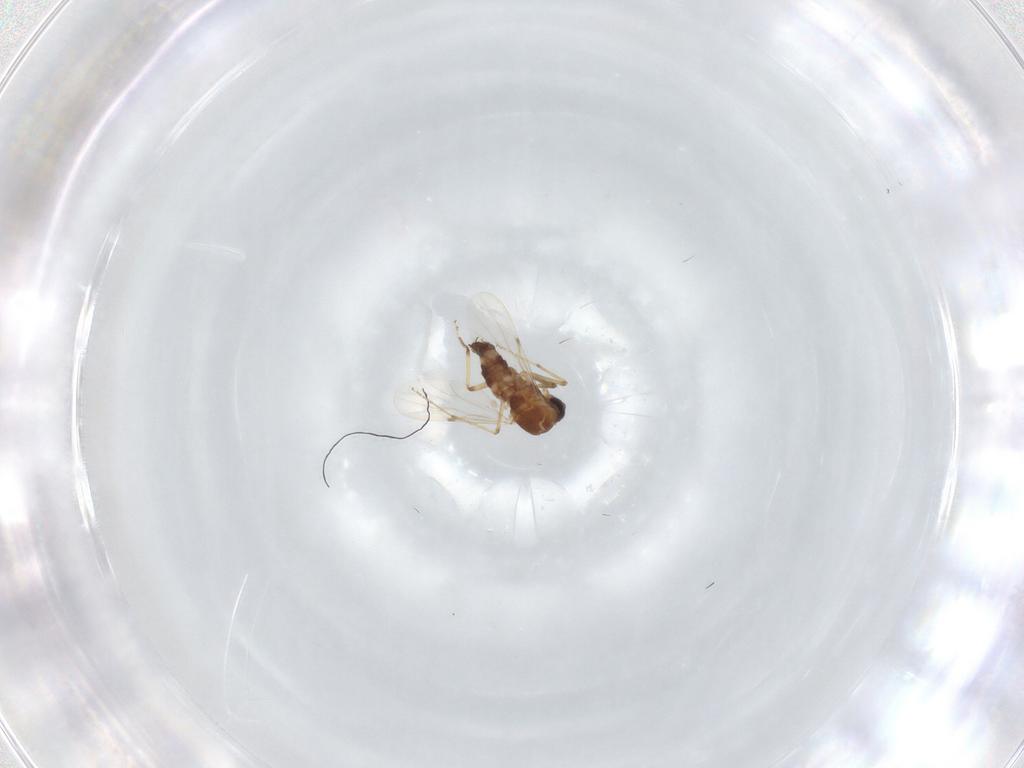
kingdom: Animalia
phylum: Arthropoda
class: Insecta
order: Diptera
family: Ceratopogonidae
